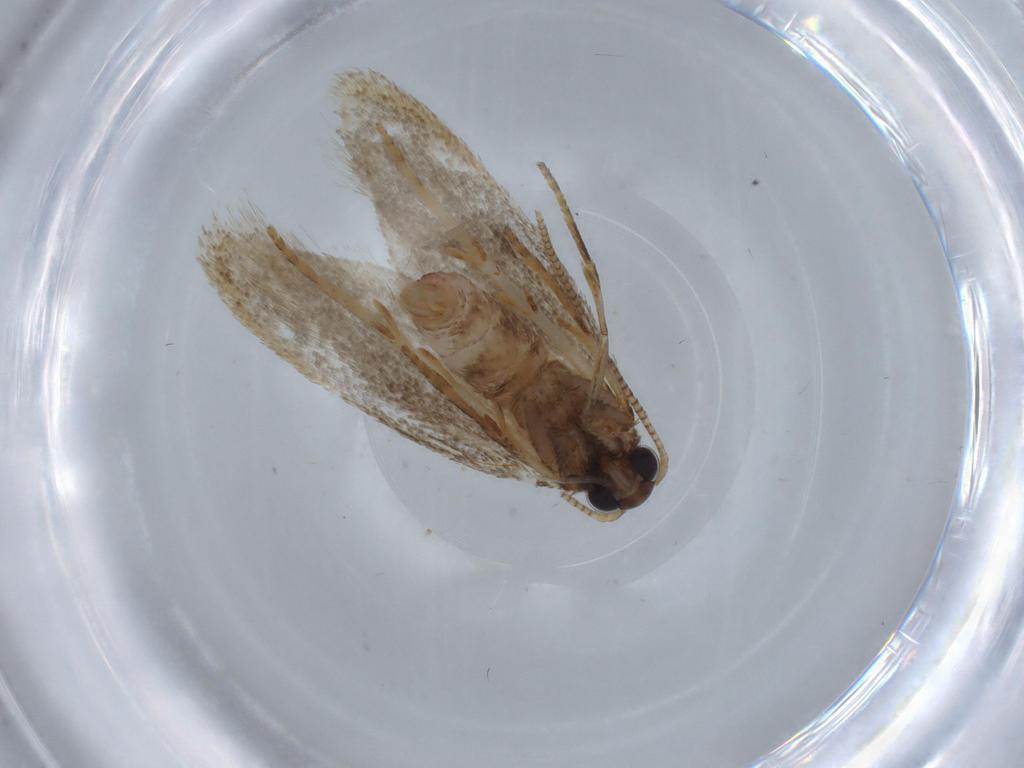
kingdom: Animalia
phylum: Arthropoda
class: Insecta
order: Lepidoptera
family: Autostichidae
